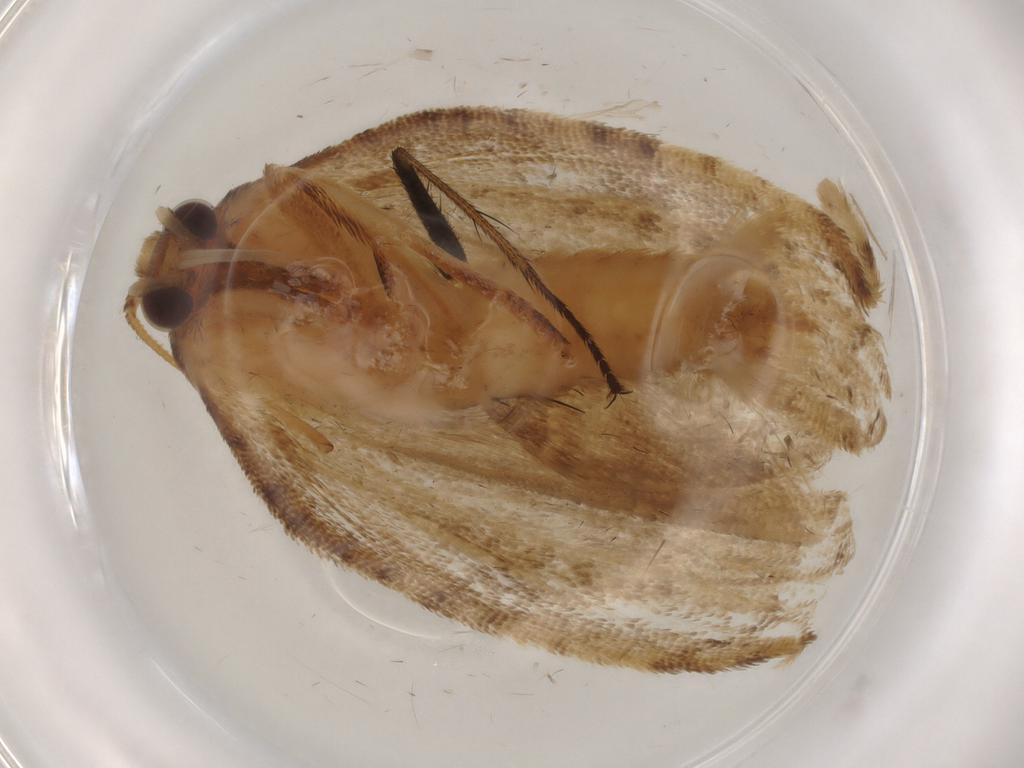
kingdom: Animalia
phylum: Arthropoda
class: Insecta
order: Lepidoptera
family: Tortricidae
